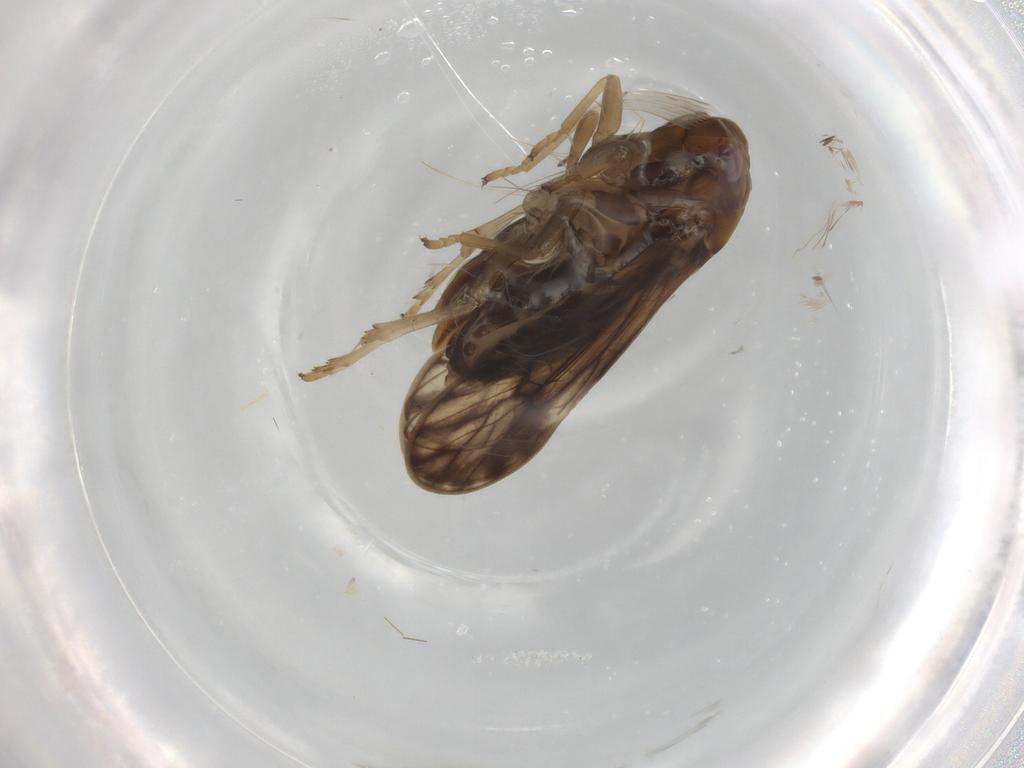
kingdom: Animalia
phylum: Arthropoda
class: Insecta
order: Hemiptera
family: Delphacidae
